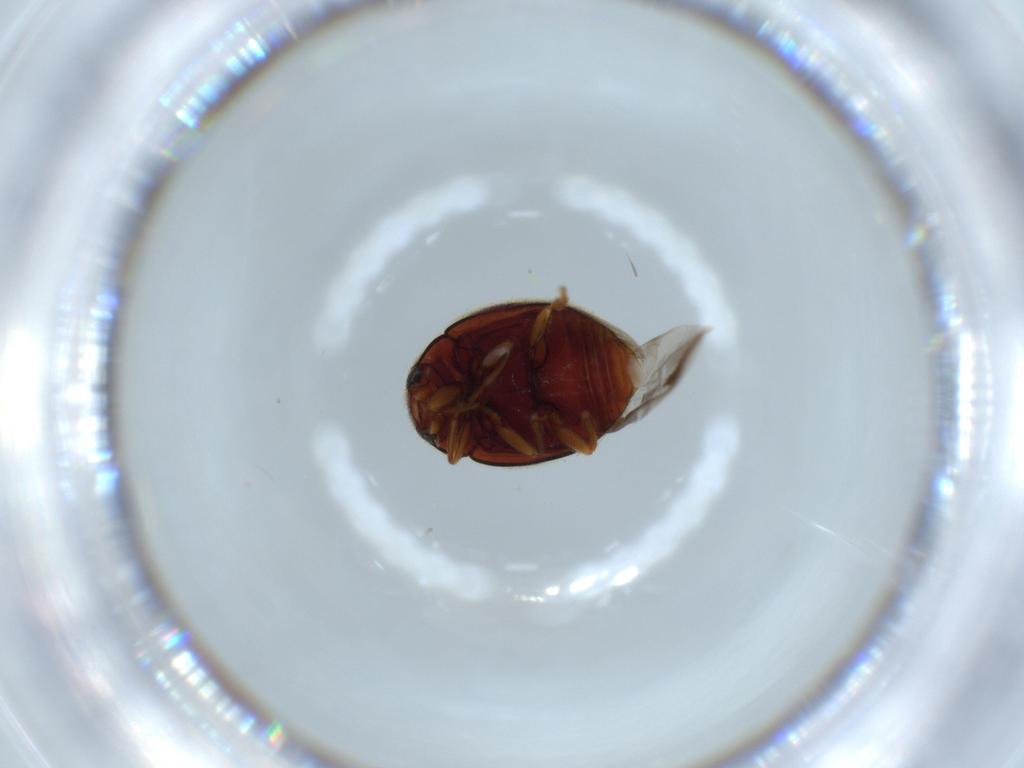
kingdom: Animalia
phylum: Arthropoda
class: Insecta
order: Coleoptera
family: Coccinellidae
